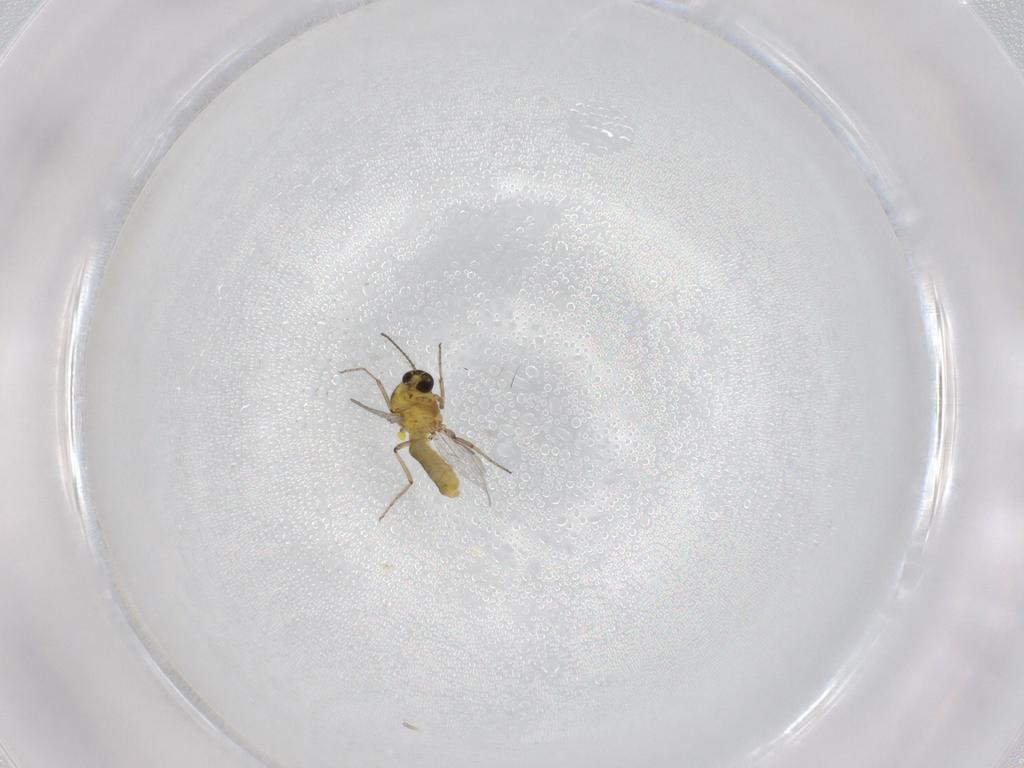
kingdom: Animalia
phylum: Arthropoda
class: Insecta
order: Diptera
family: Ceratopogonidae
